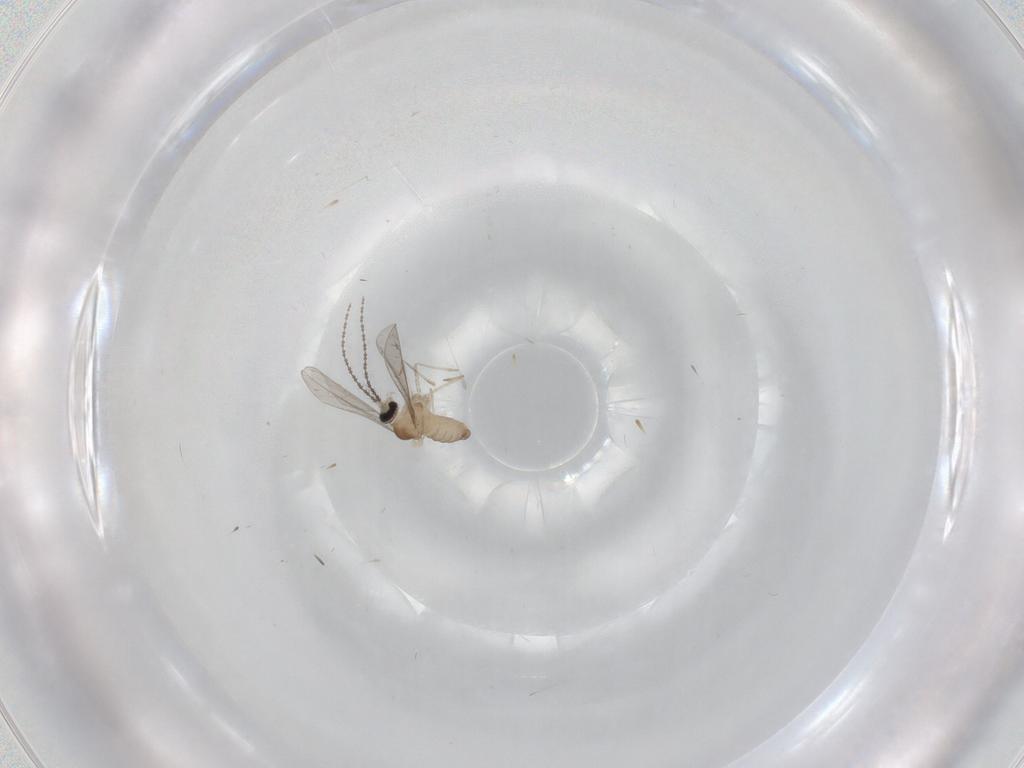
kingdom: Animalia
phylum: Arthropoda
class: Insecta
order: Diptera
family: Cecidomyiidae
